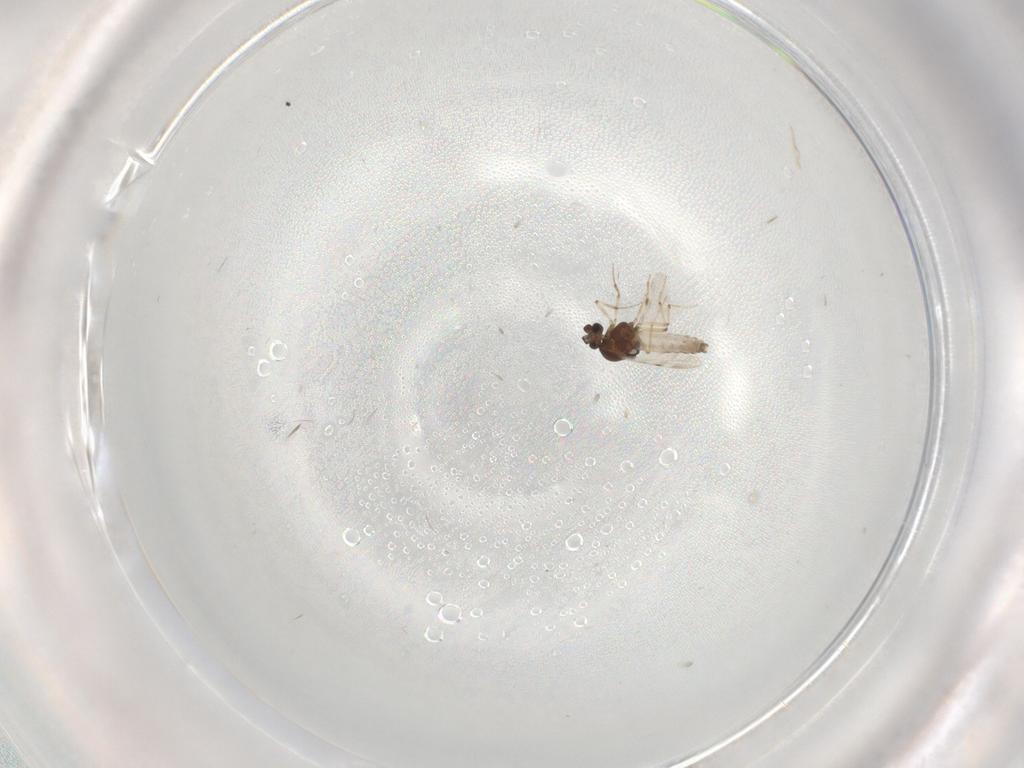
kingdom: Animalia
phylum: Arthropoda
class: Insecta
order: Diptera
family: Sciaridae
